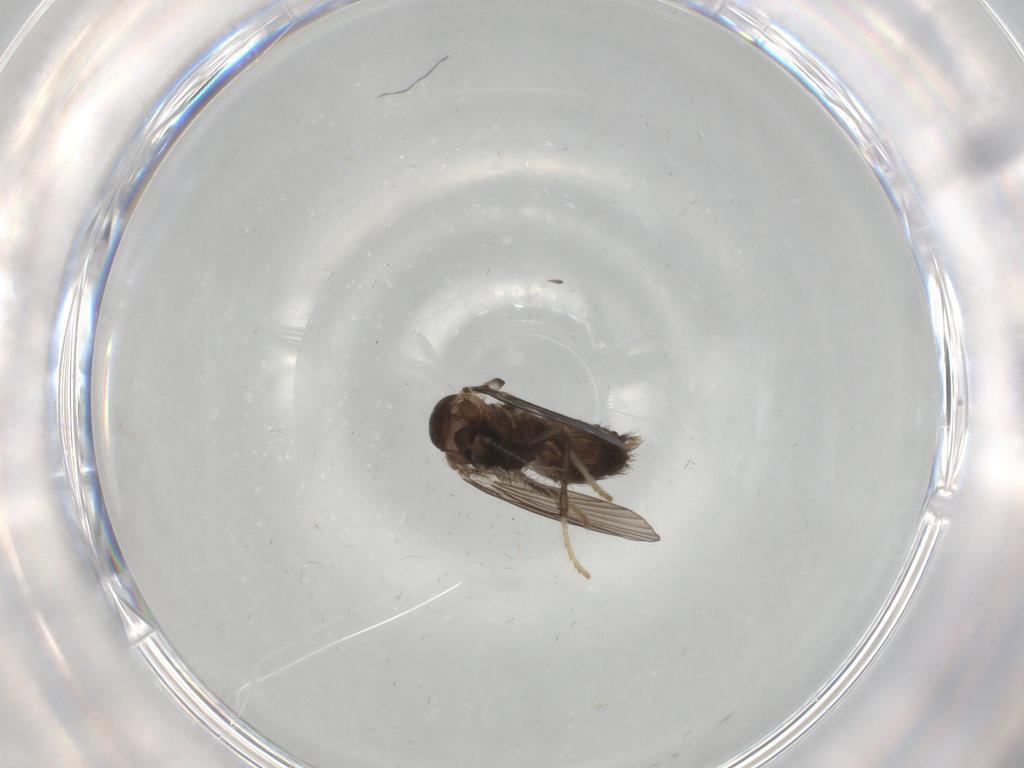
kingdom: Animalia
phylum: Arthropoda
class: Insecta
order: Diptera
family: Psychodidae
